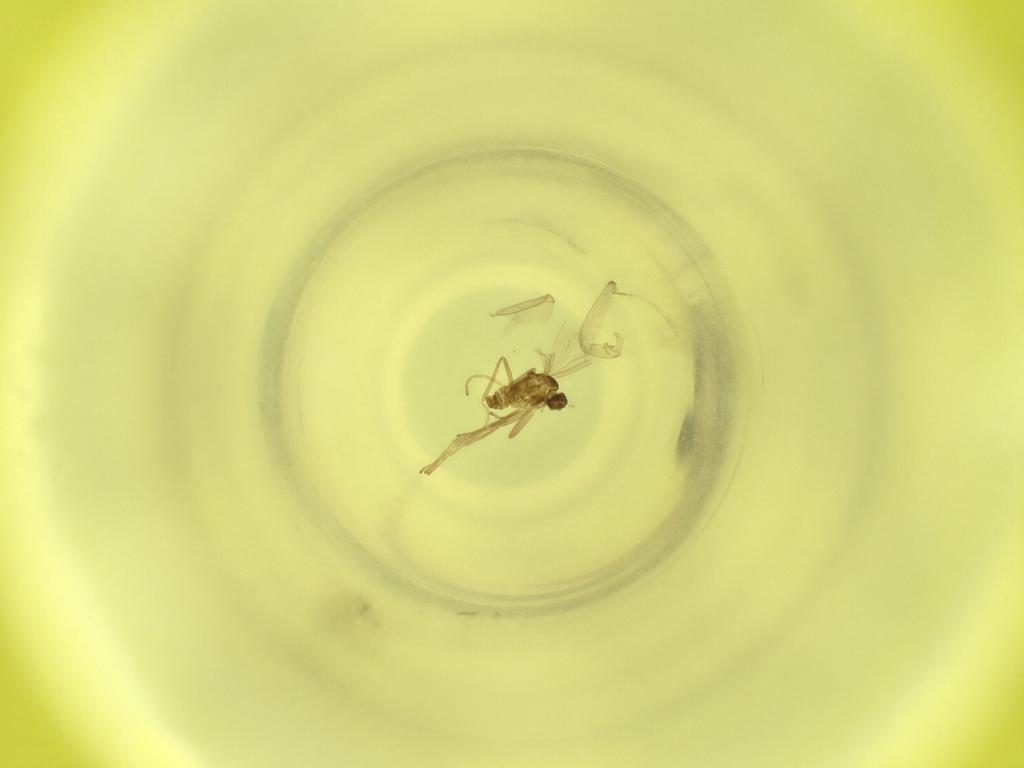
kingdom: Animalia
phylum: Arthropoda
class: Insecta
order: Diptera
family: Cecidomyiidae
